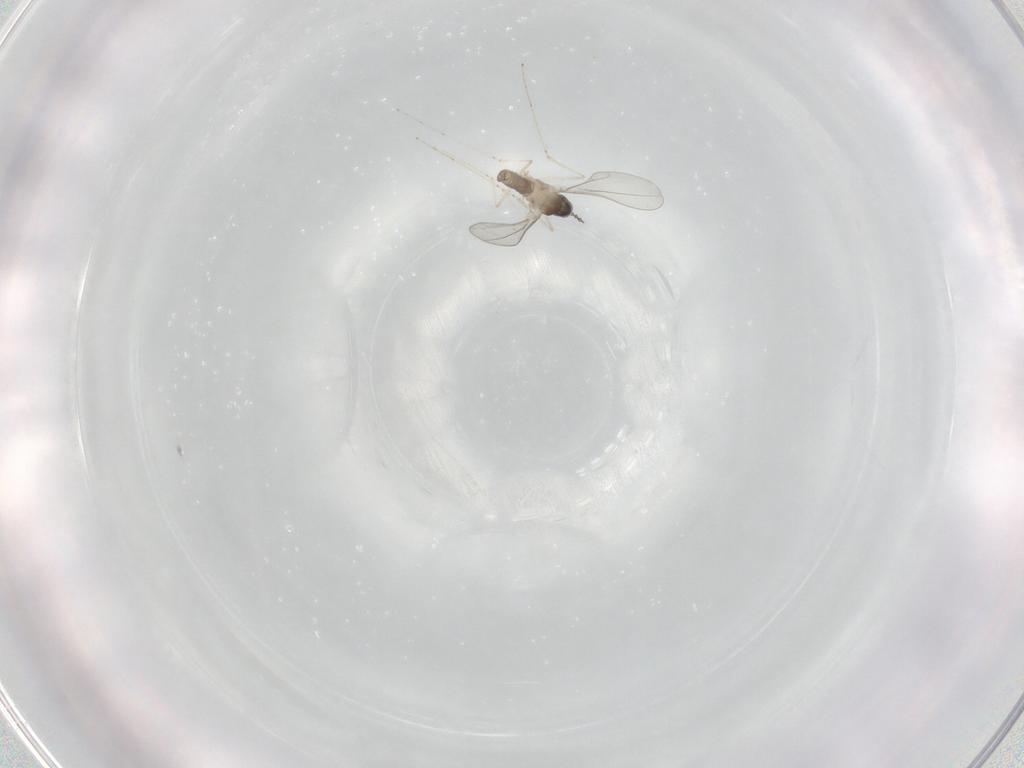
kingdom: Animalia
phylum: Arthropoda
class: Insecta
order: Diptera
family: Cecidomyiidae
